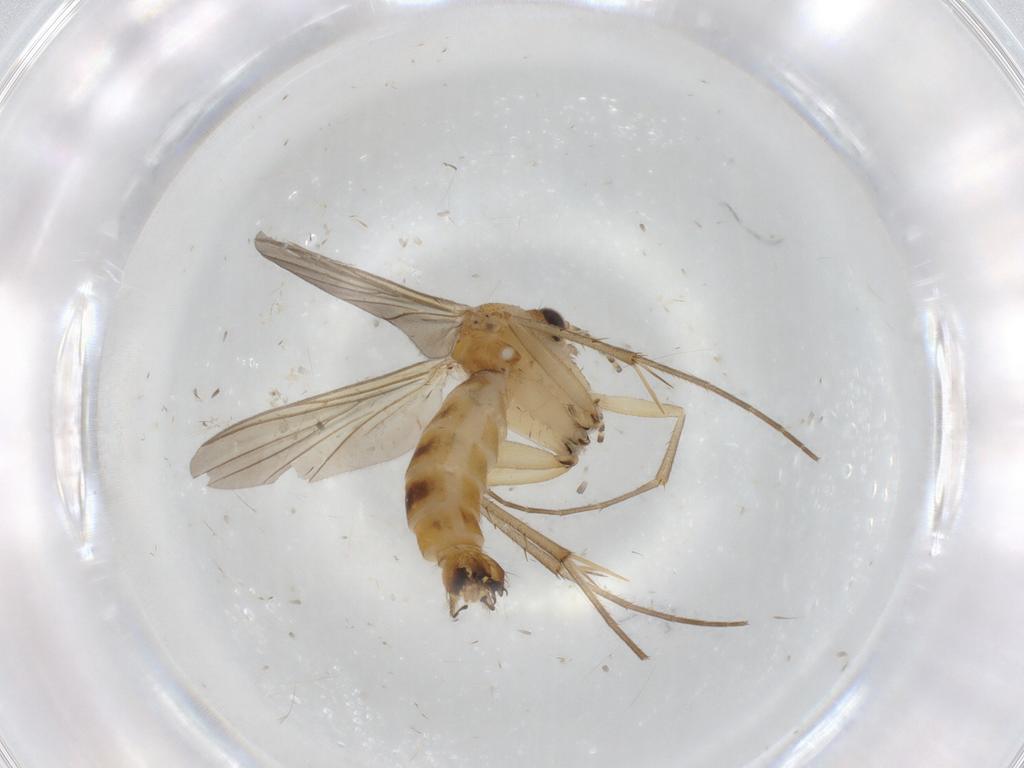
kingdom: Animalia
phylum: Arthropoda
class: Insecta
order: Diptera
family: Mycetophilidae
